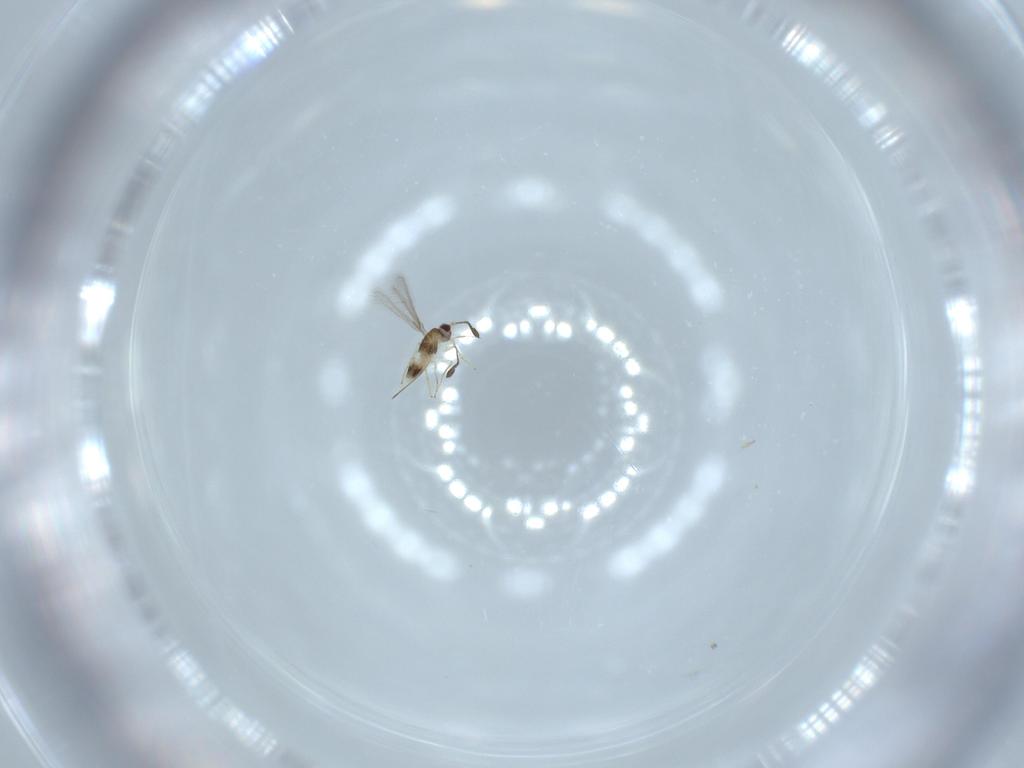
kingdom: Animalia
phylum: Arthropoda
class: Insecta
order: Hymenoptera
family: Mymaridae
